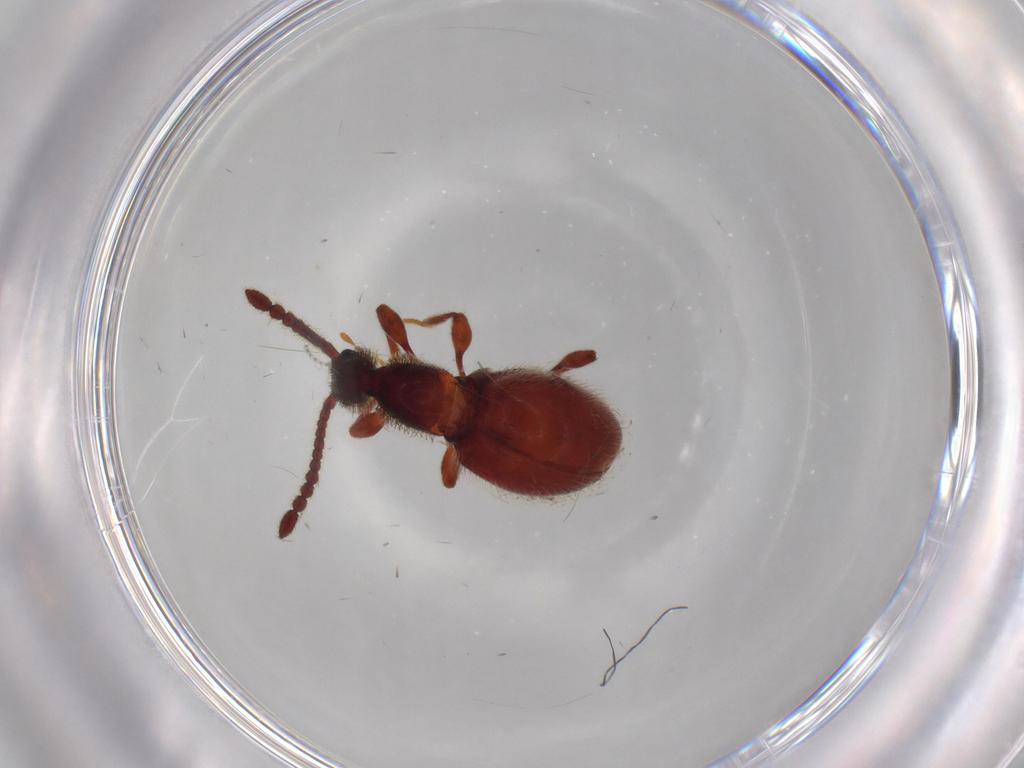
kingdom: Animalia
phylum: Arthropoda
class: Insecta
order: Coleoptera
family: Staphylinidae
